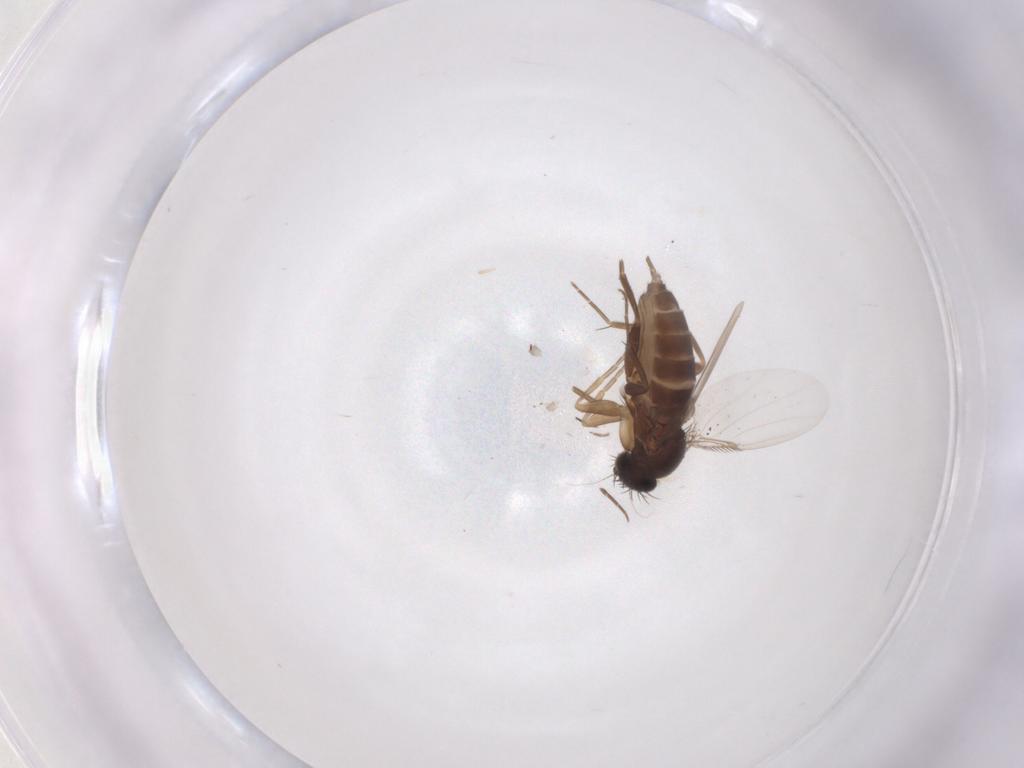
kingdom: Animalia
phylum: Arthropoda
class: Insecta
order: Diptera
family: Phoridae
